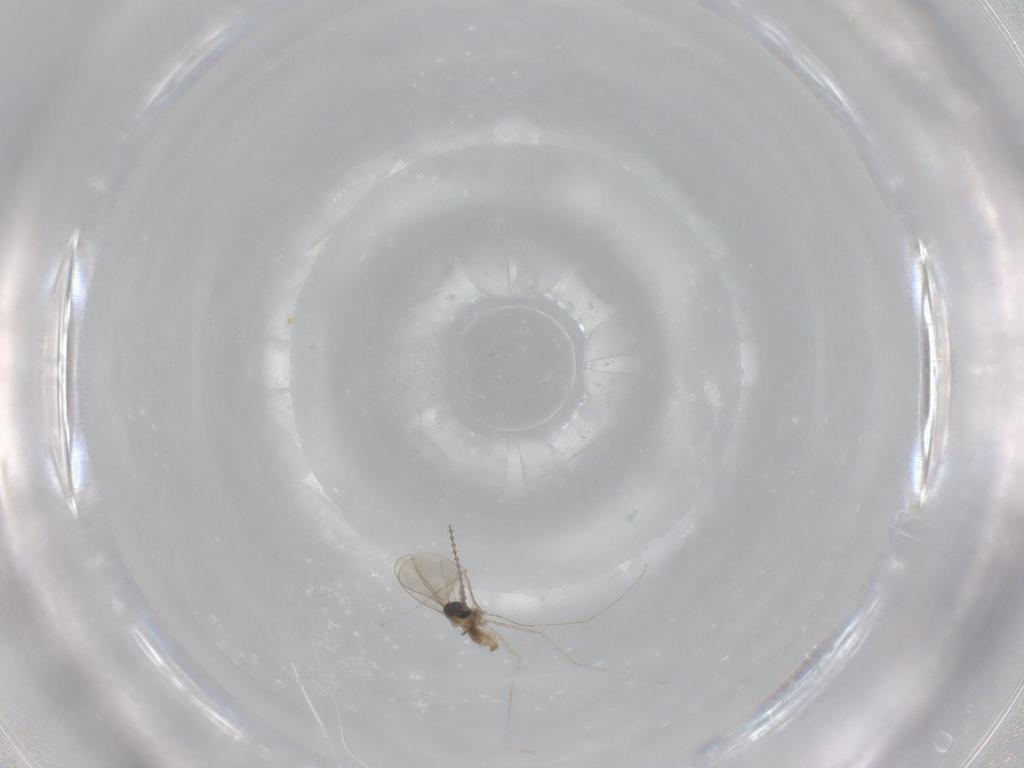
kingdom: Animalia
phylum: Arthropoda
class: Insecta
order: Diptera
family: Cecidomyiidae
